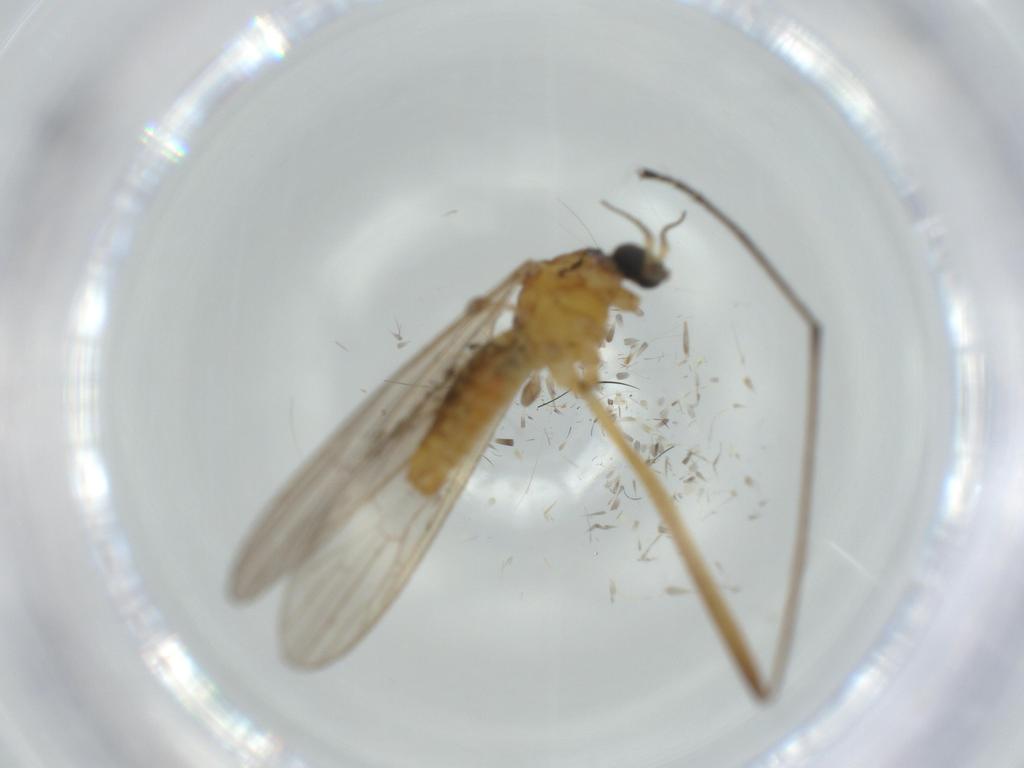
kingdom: Animalia
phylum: Arthropoda
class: Insecta
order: Diptera
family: Phoridae
